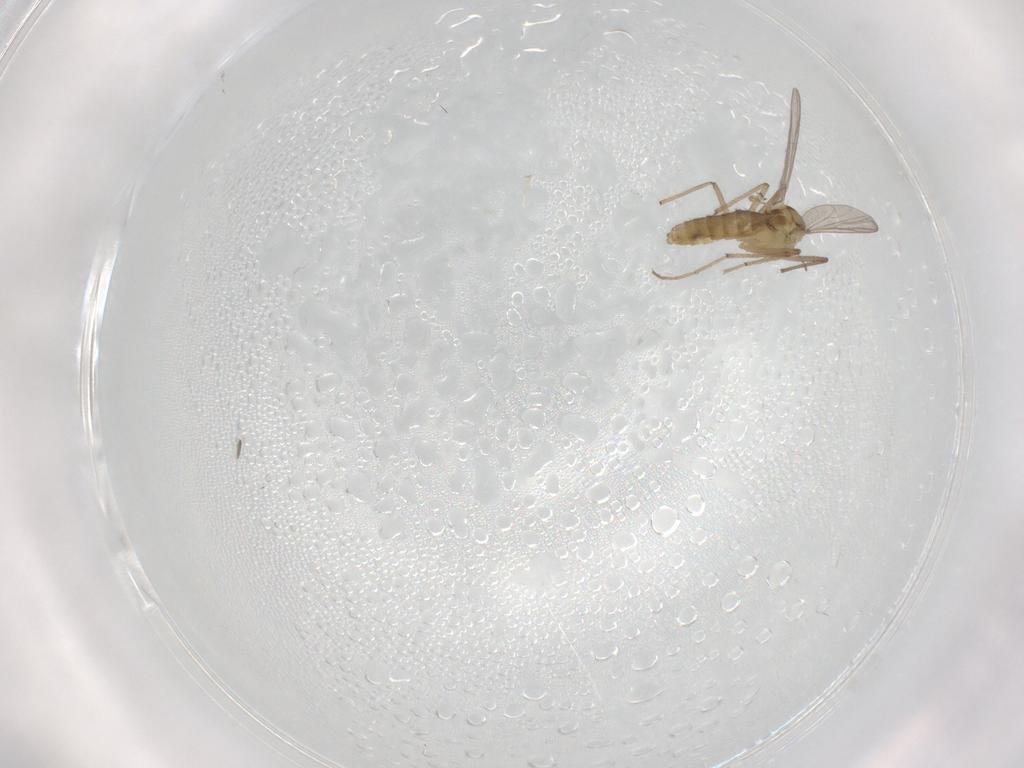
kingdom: Animalia
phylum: Arthropoda
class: Insecta
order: Diptera
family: Chironomidae
